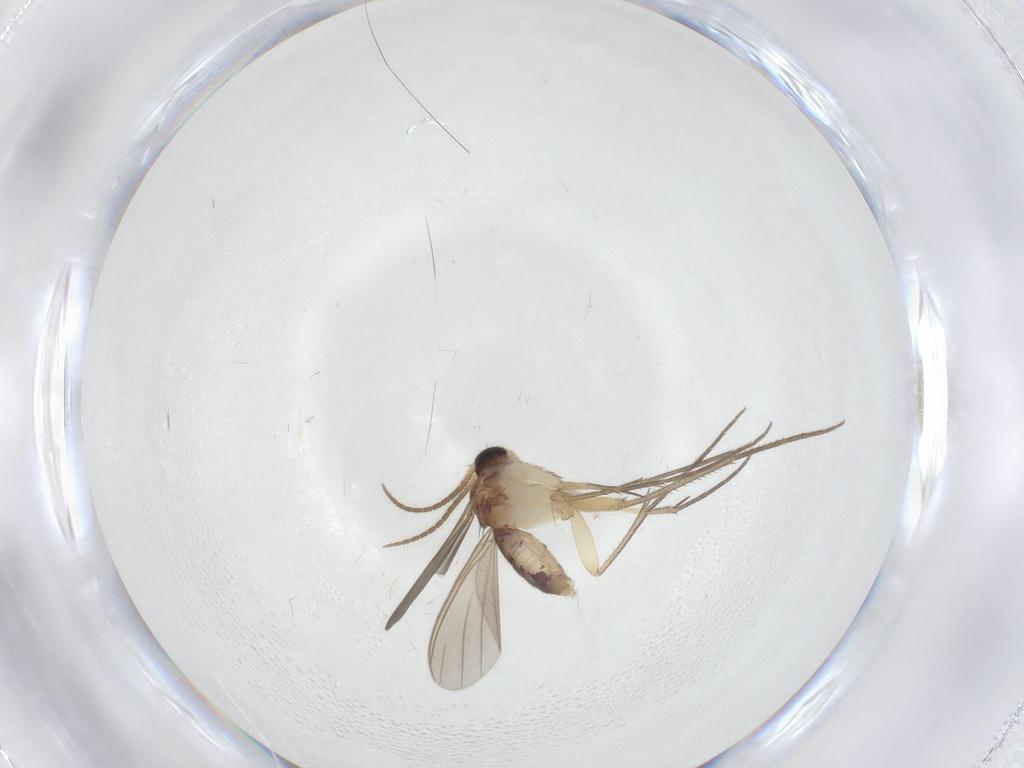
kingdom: Animalia
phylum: Arthropoda
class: Insecta
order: Diptera
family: Mycetophilidae
